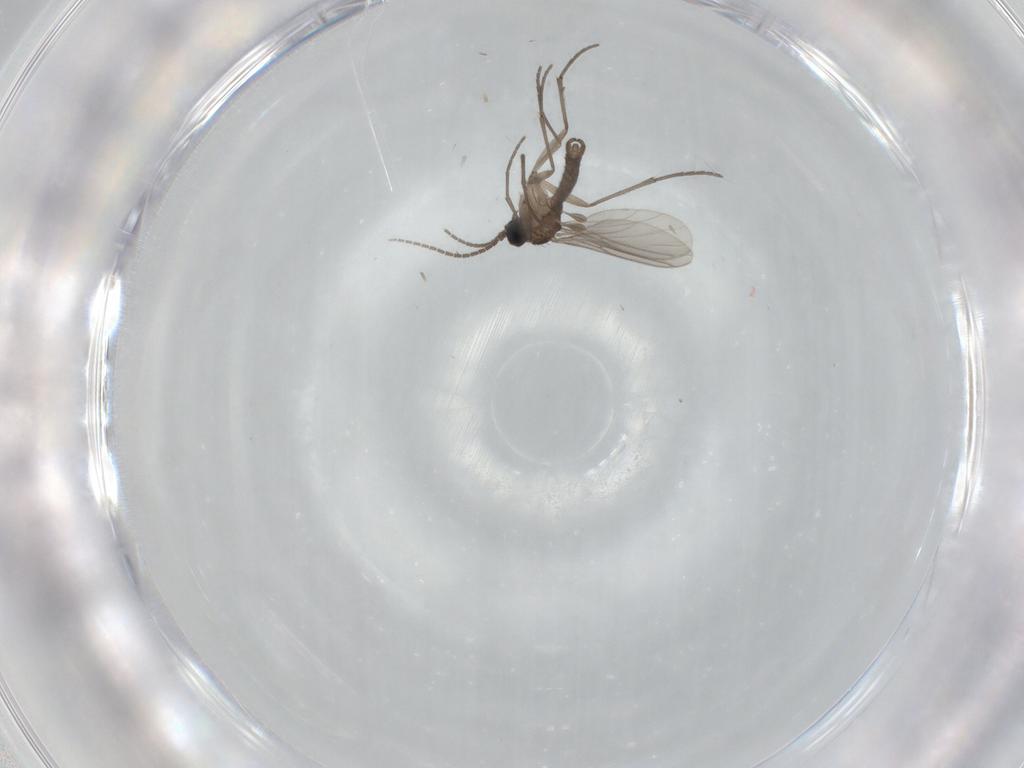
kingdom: Animalia
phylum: Arthropoda
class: Insecta
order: Diptera
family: Sciaridae
